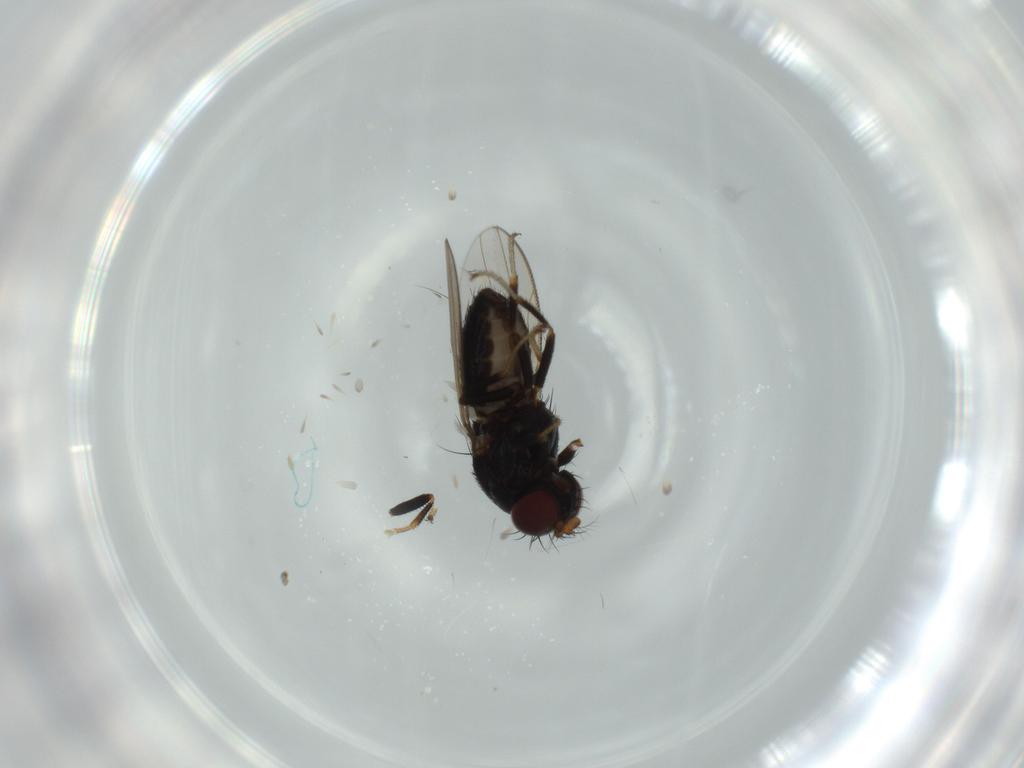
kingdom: Animalia
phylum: Arthropoda
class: Insecta
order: Diptera
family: Ephydridae
